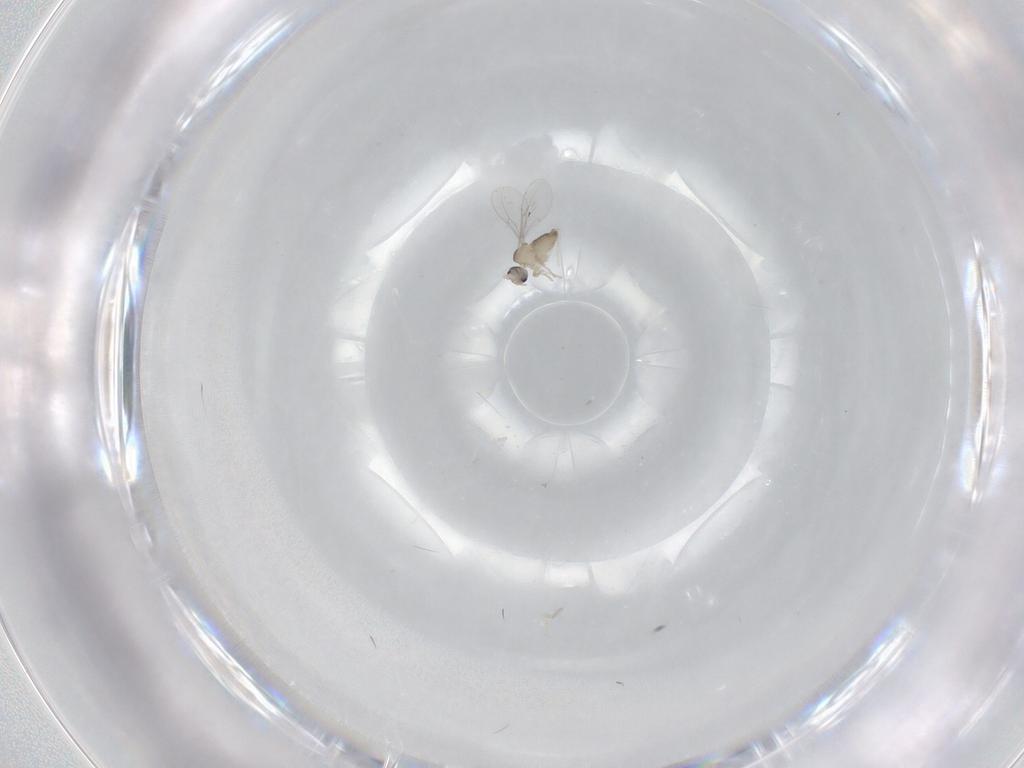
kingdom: Animalia
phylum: Arthropoda
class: Insecta
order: Diptera
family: Cecidomyiidae
